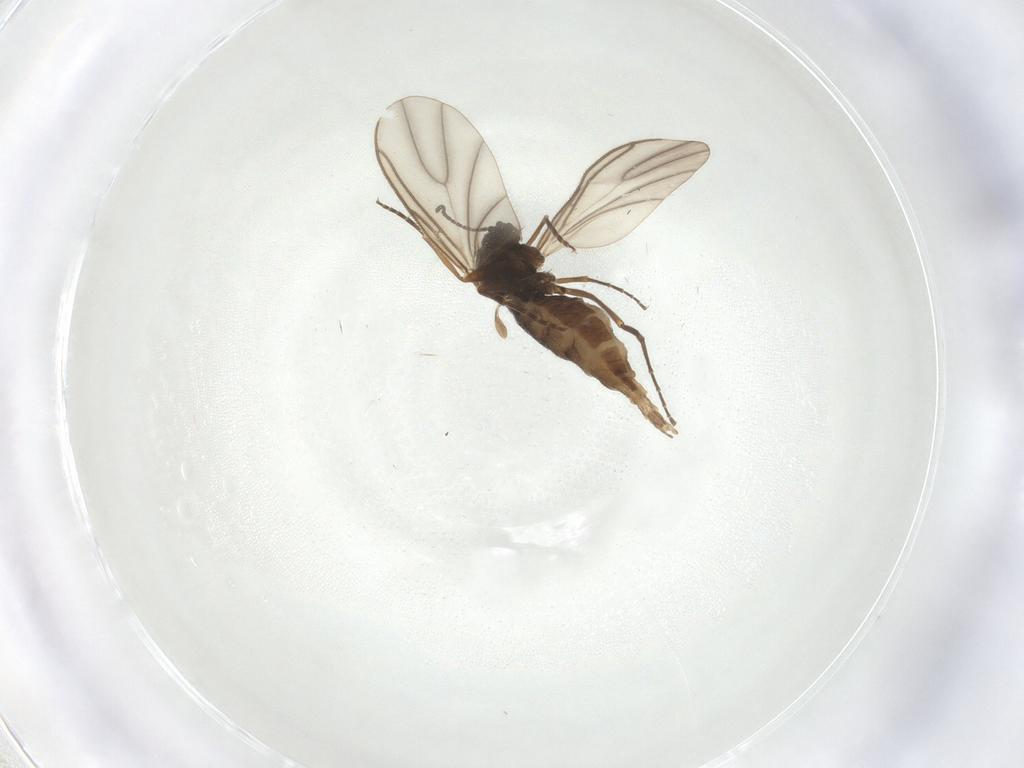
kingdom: Animalia
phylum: Arthropoda
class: Insecta
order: Diptera
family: Sciaridae
